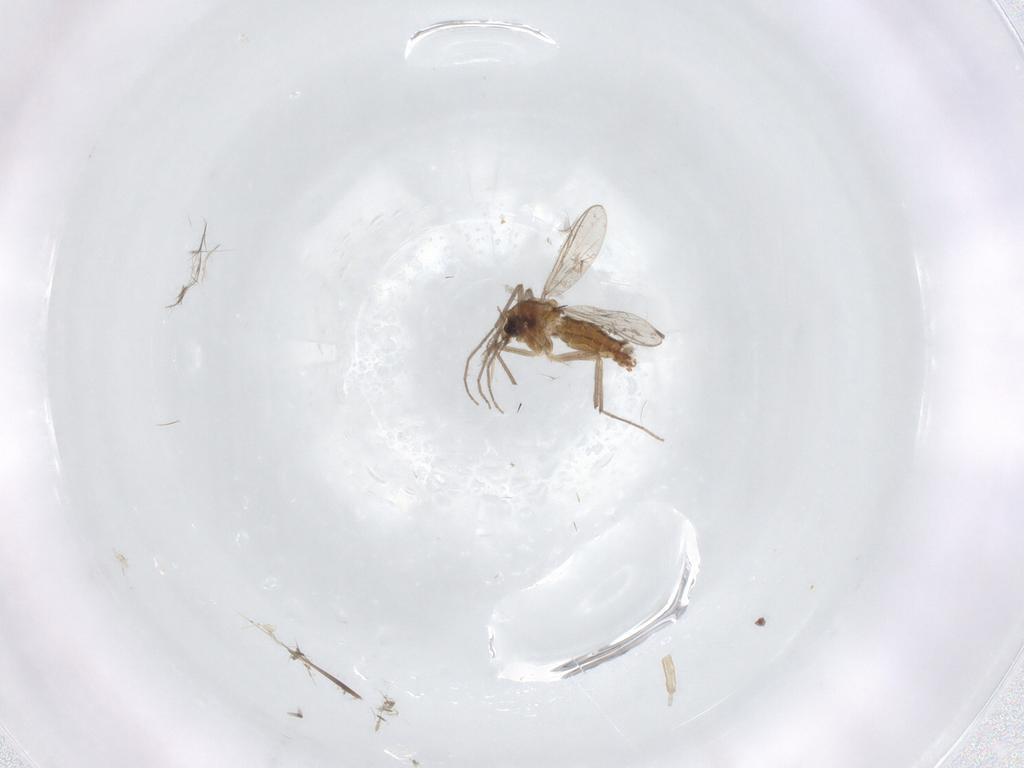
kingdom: Animalia
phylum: Arthropoda
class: Insecta
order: Diptera
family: Chironomidae
